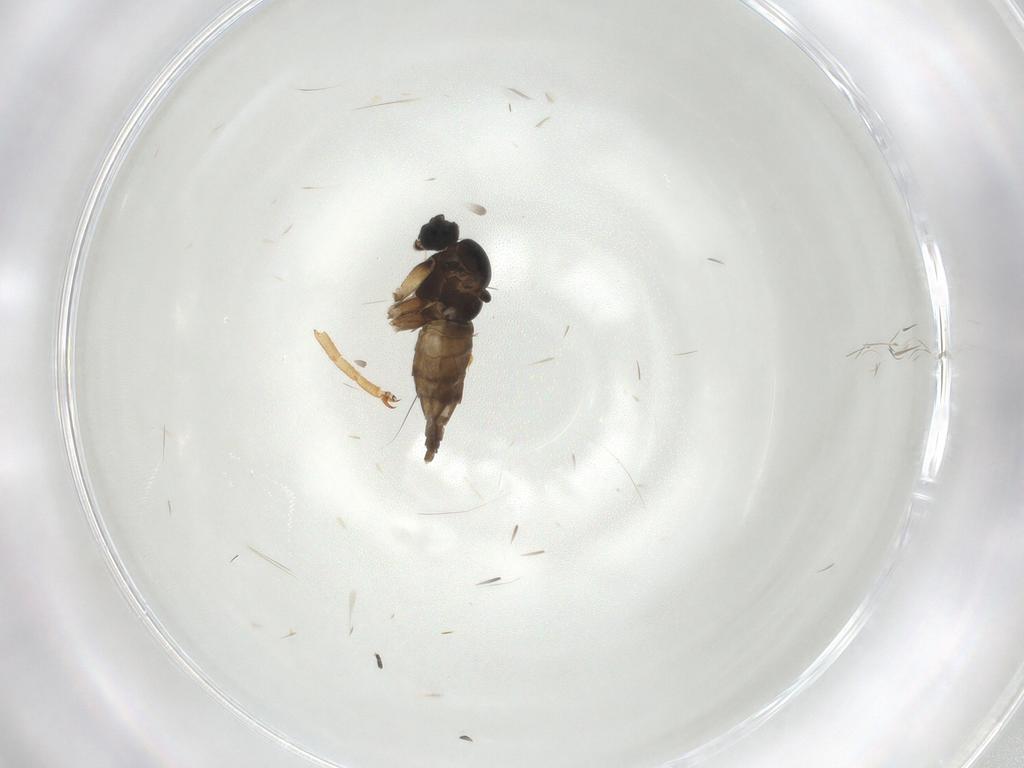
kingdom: Animalia
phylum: Arthropoda
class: Insecta
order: Diptera
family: Sciaridae
